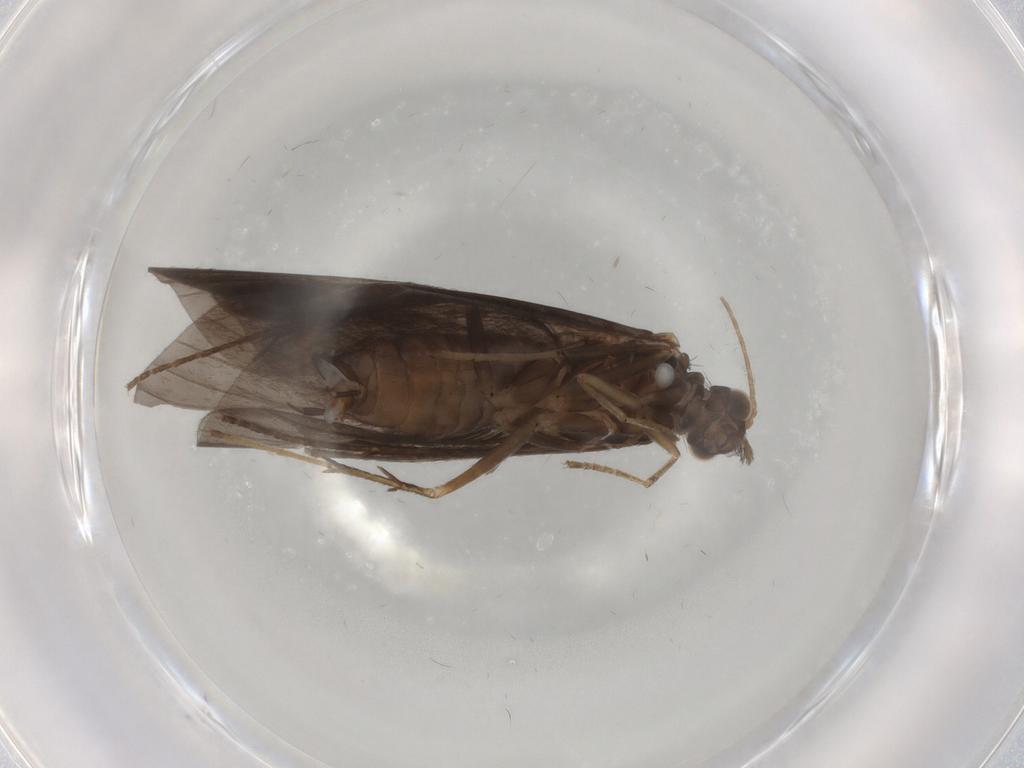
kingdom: Animalia
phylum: Arthropoda
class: Insecta
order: Trichoptera
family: Hydropsychidae
